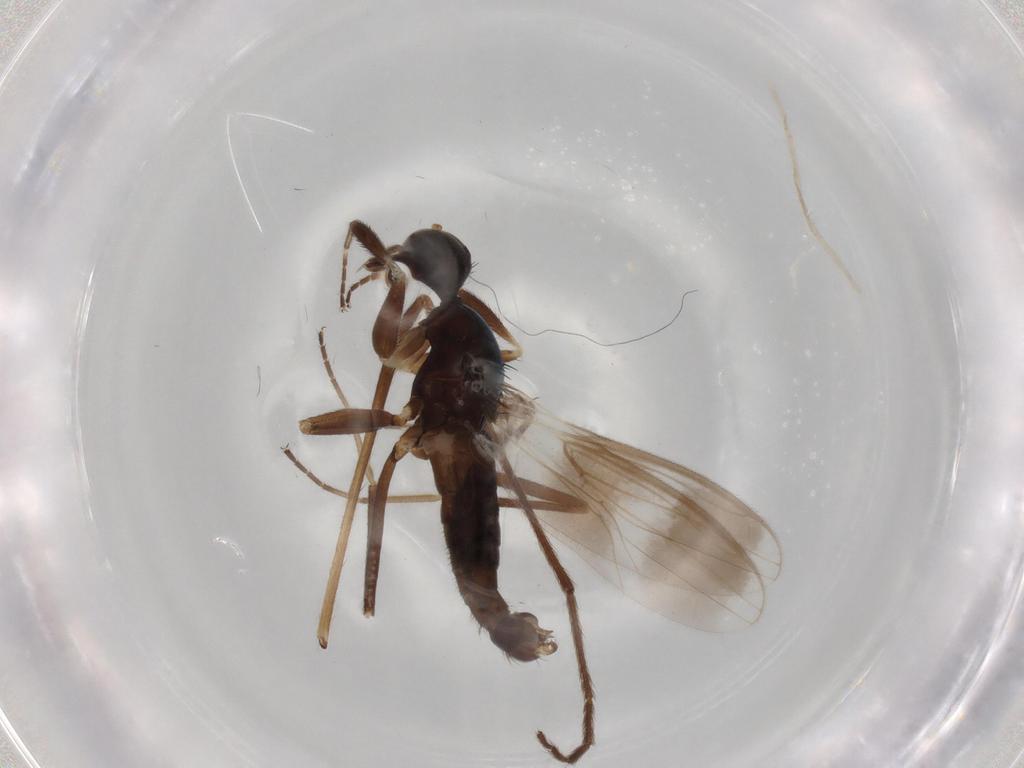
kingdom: Animalia
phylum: Arthropoda
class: Insecta
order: Diptera
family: Hybotidae
